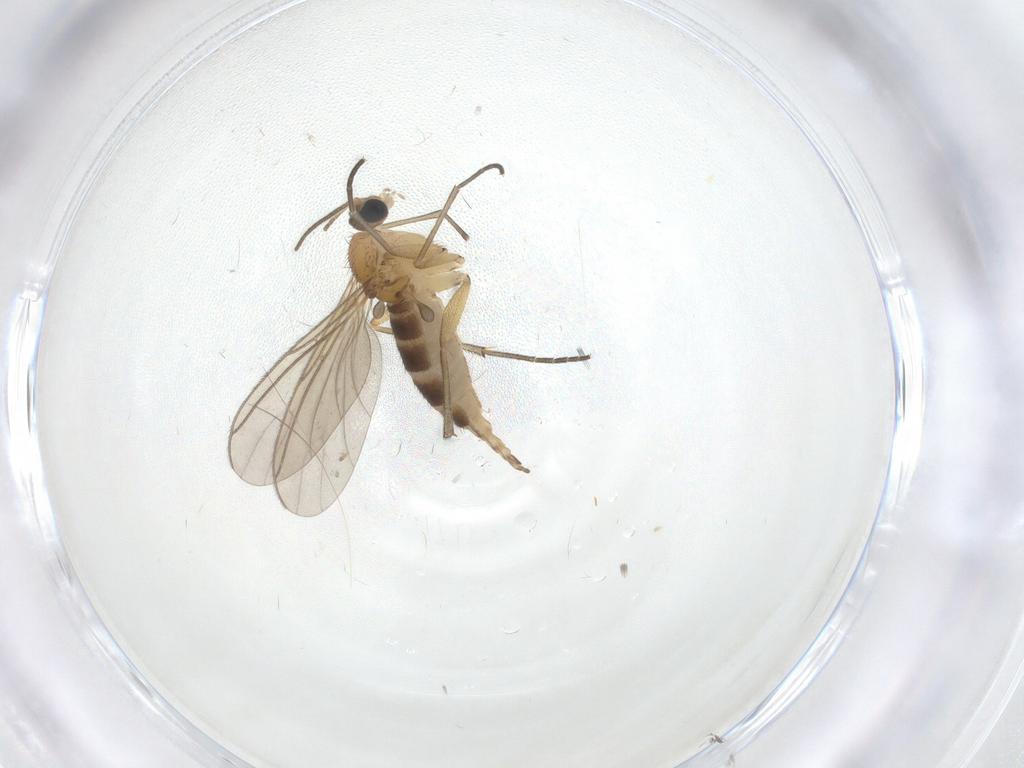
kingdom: Animalia
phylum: Arthropoda
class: Insecta
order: Diptera
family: Sciaridae
